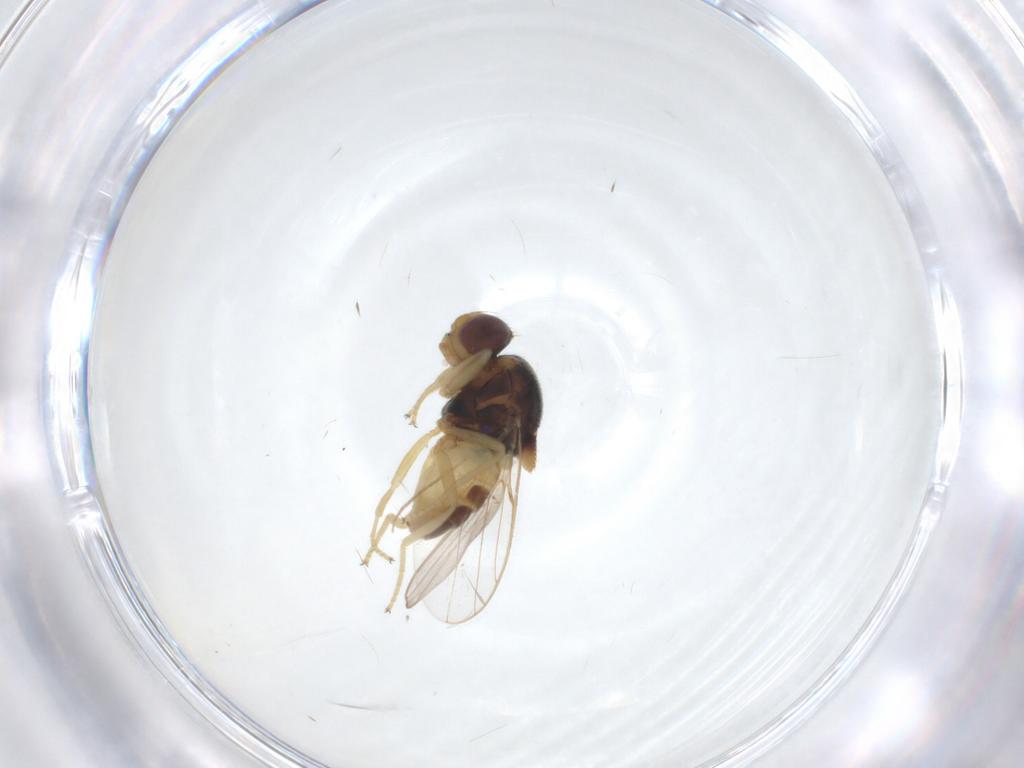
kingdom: Animalia
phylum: Arthropoda
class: Insecta
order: Diptera
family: Chloropidae
